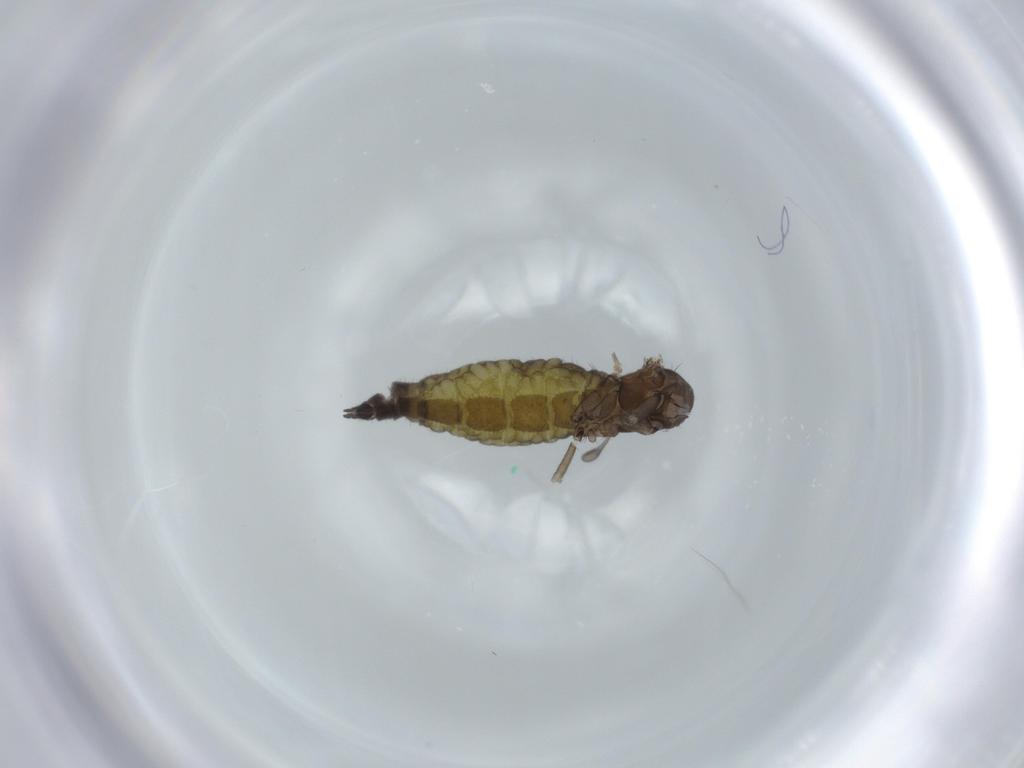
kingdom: Animalia
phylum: Arthropoda
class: Insecta
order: Diptera
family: Sciaridae
